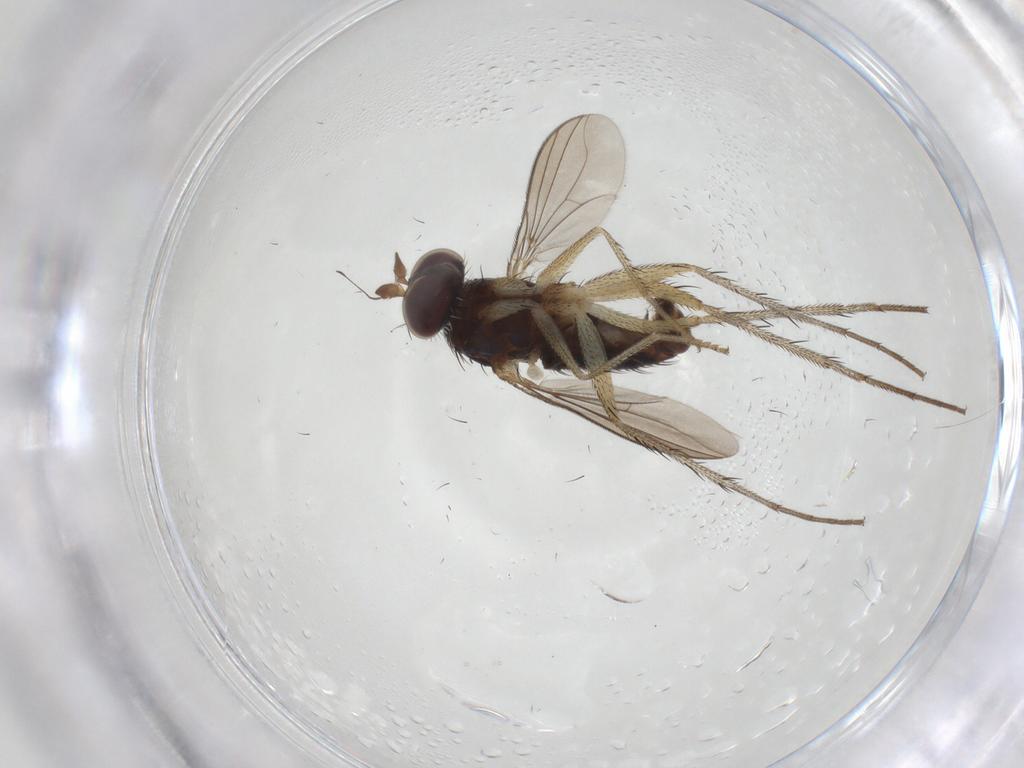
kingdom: Animalia
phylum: Arthropoda
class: Insecta
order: Diptera
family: Dolichopodidae
